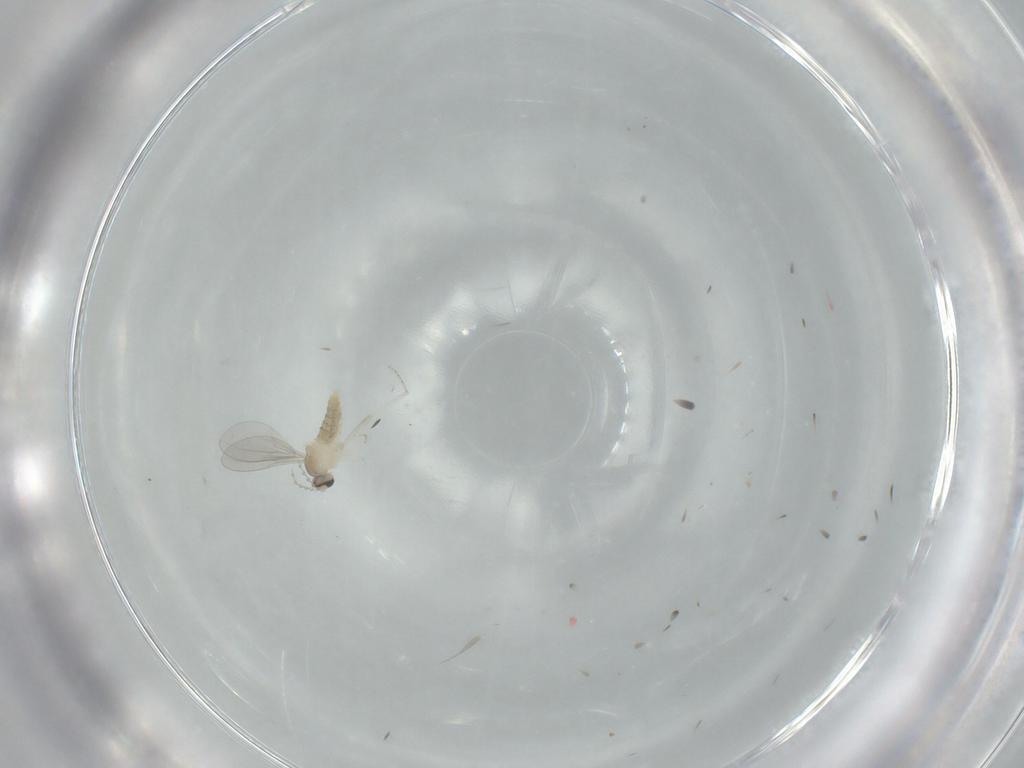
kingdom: Animalia
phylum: Arthropoda
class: Insecta
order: Diptera
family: Cecidomyiidae
